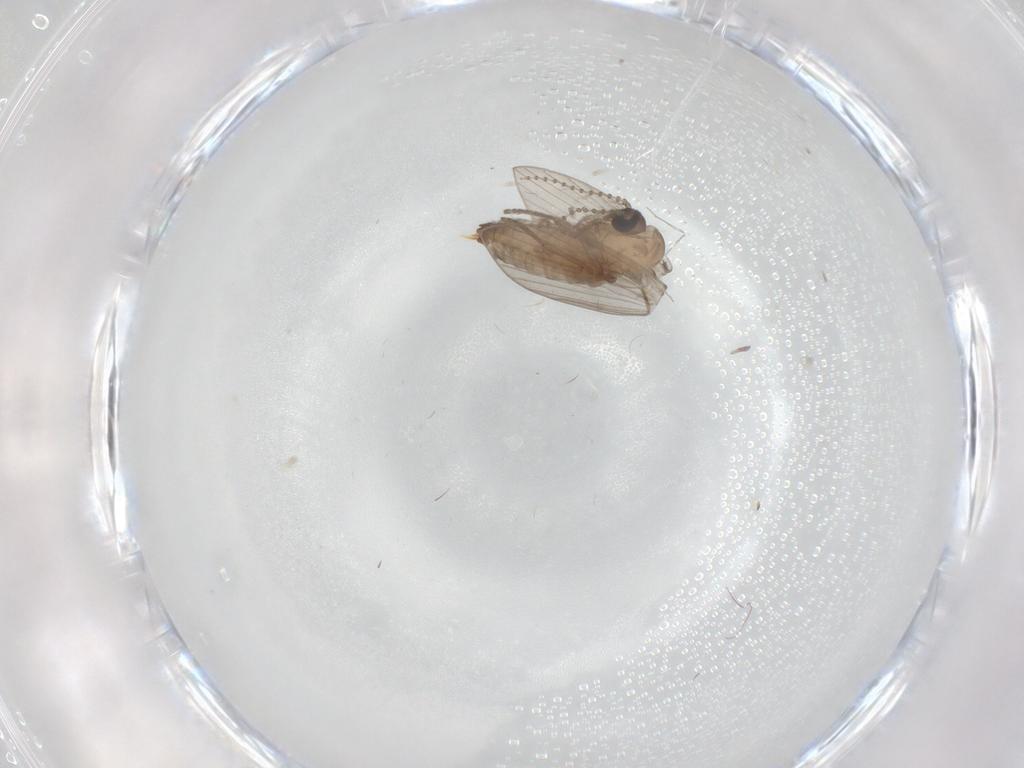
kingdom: Animalia
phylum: Arthropoda
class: Insecta
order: Diptera
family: Psychodidae
